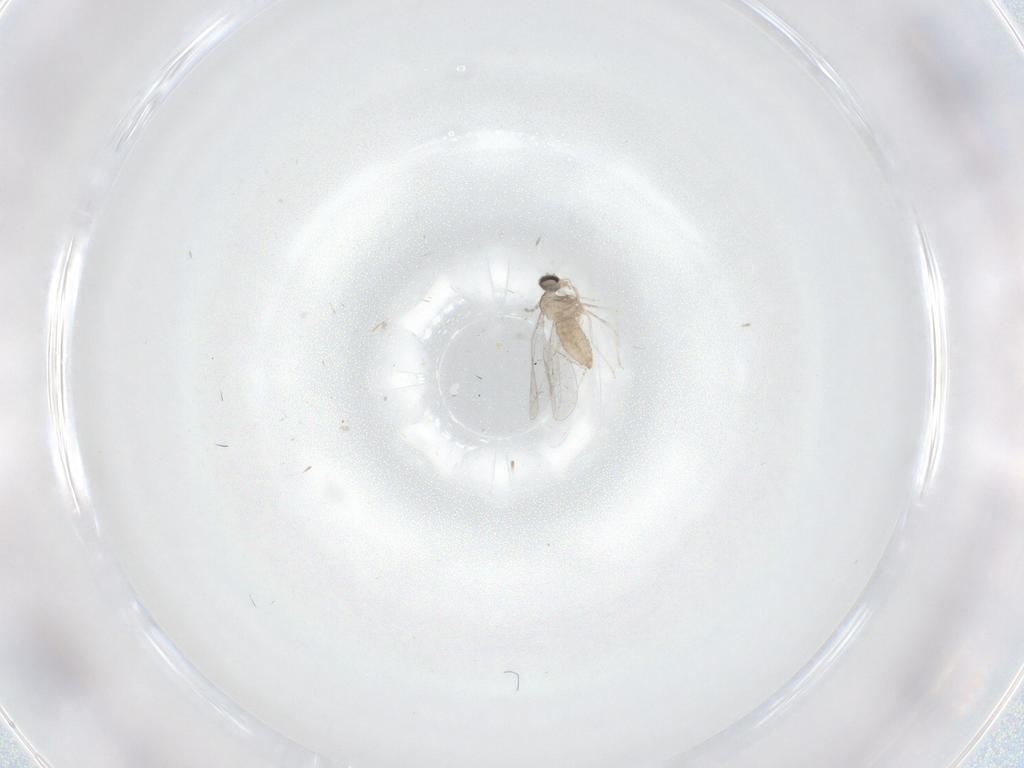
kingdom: Animalia
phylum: Arthropoda
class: Insecta
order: Diptera
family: Cecidomyiidae
